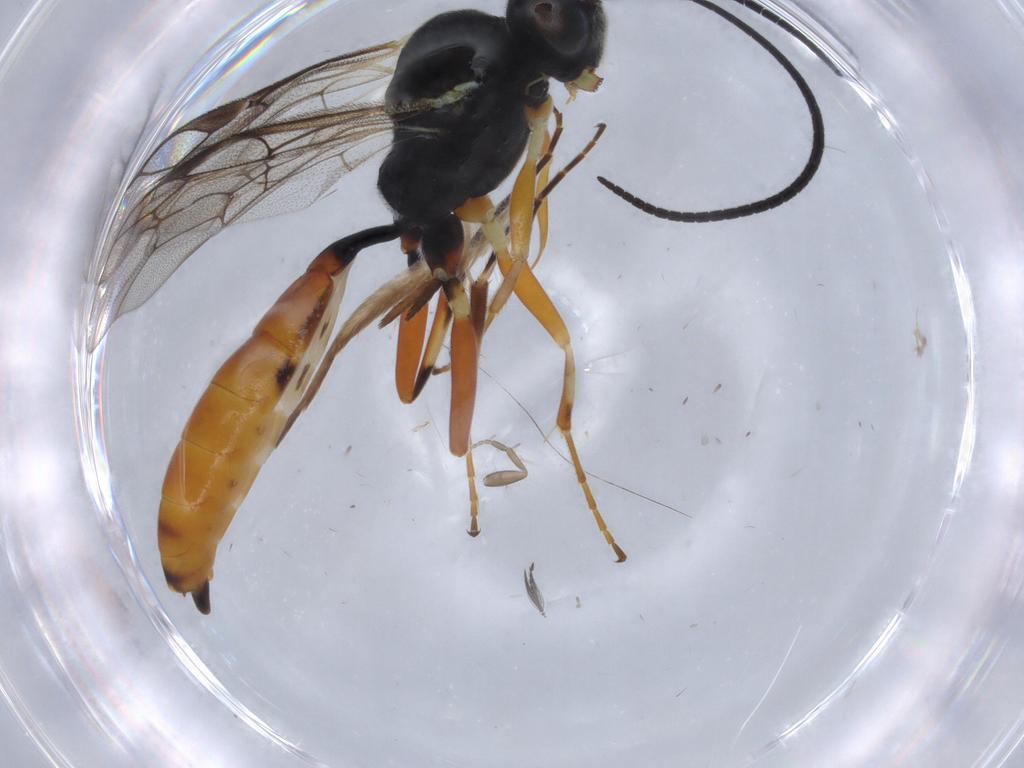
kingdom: Animalia
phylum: Arthropoda
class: Insecta
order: Hymenoptera
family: Ichneumonidae
